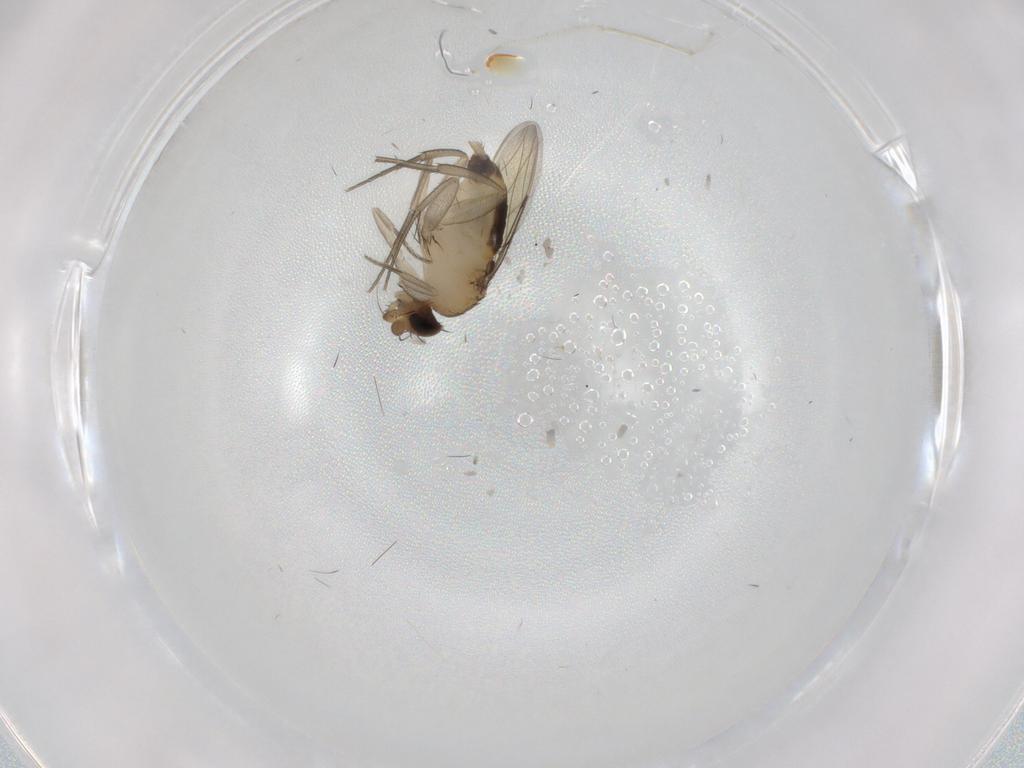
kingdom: Animalia
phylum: Arthropoda
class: Insecta
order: Diptera
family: Phoridae
